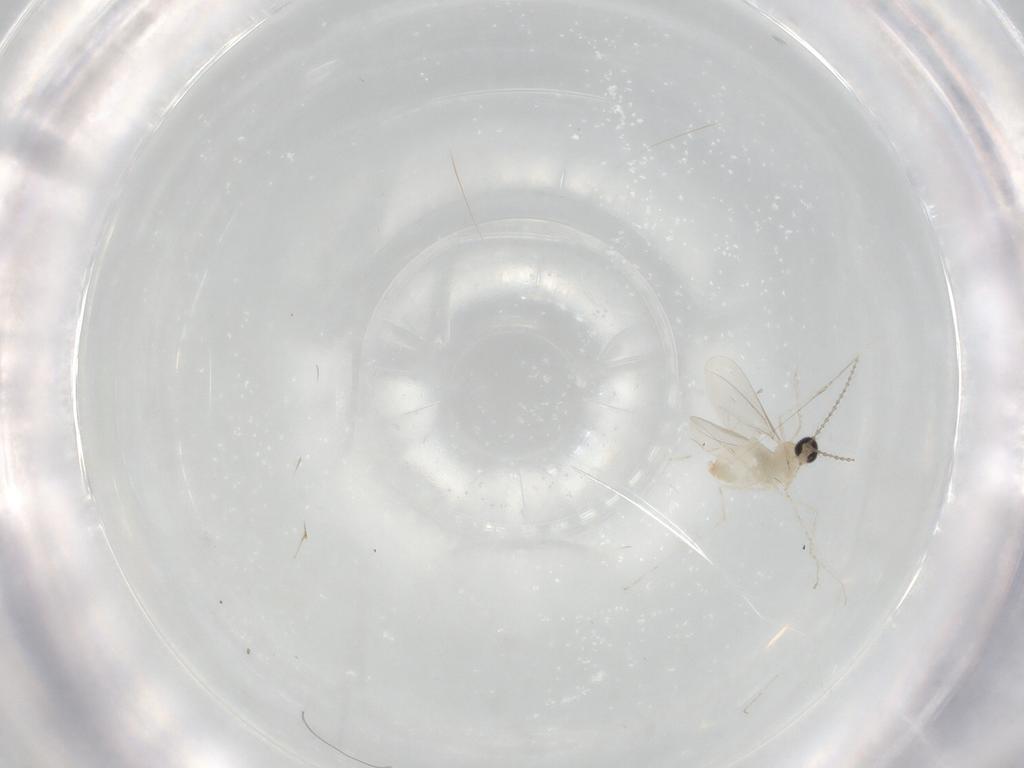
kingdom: Animalia
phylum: Arthropoda
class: Insecta
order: Diptera
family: Cecidomyiidae
